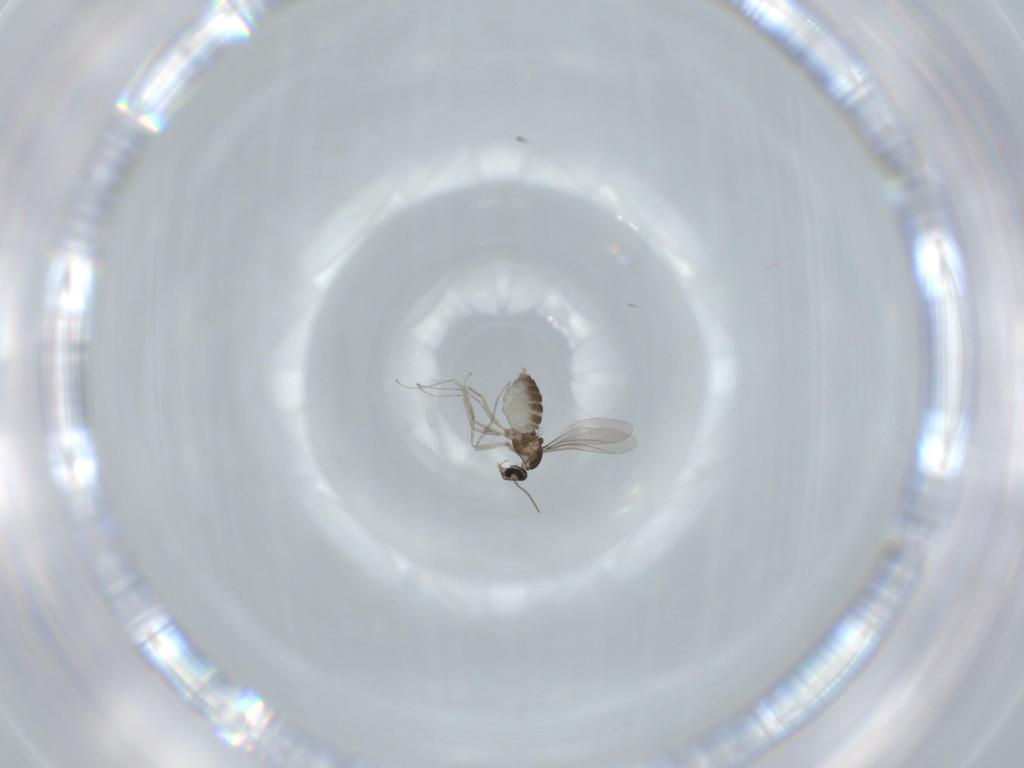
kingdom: Animalia
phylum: Arthropoda
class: Insecta
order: Diptera
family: Cecidomyiidae
